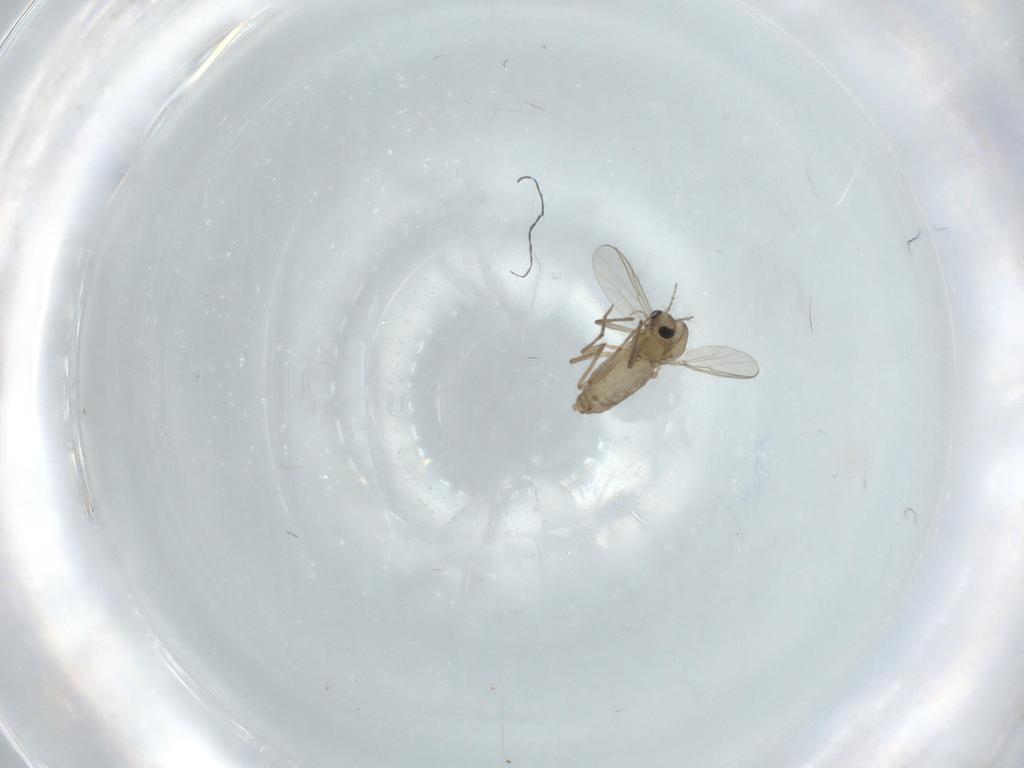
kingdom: Animalia
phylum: Arthropoda
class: Insecta
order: Diptera
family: Chironomidae
